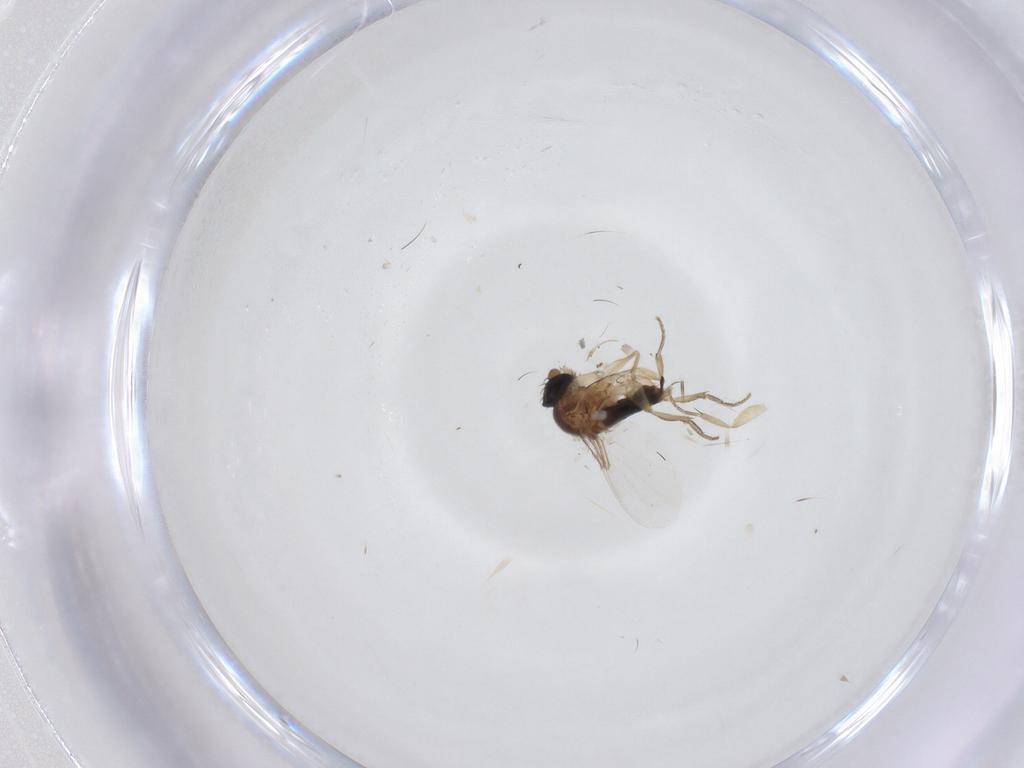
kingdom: Animalia
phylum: Arthropoda
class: Insecta
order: Diptera
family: Phoridae
